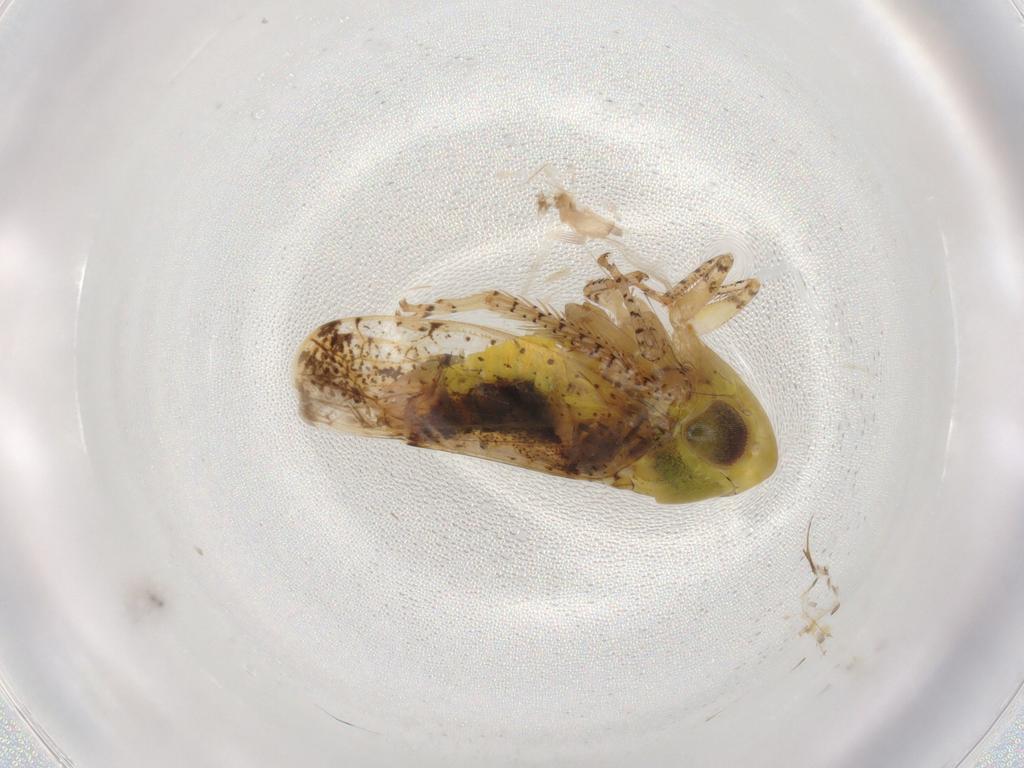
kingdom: Animalia
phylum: Arthropoda
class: Insecta
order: Hemiptera
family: Cicadellidae
